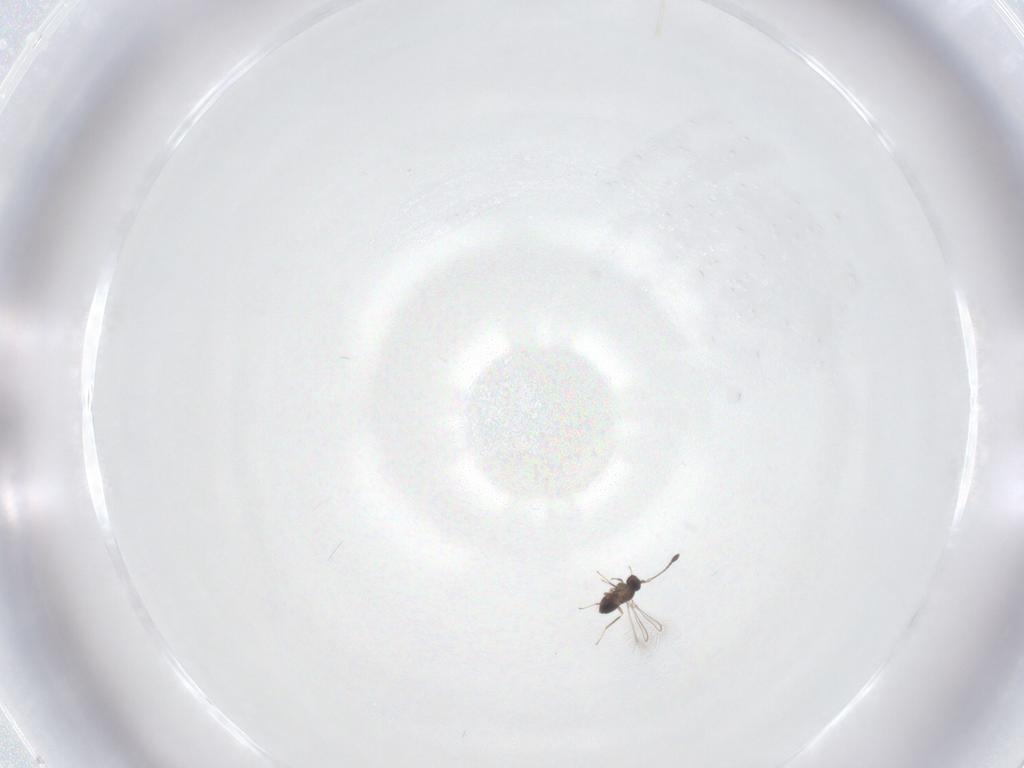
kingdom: Animalia
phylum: Arthropoda
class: Insecta
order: Hymenoptera
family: Mymaridae
